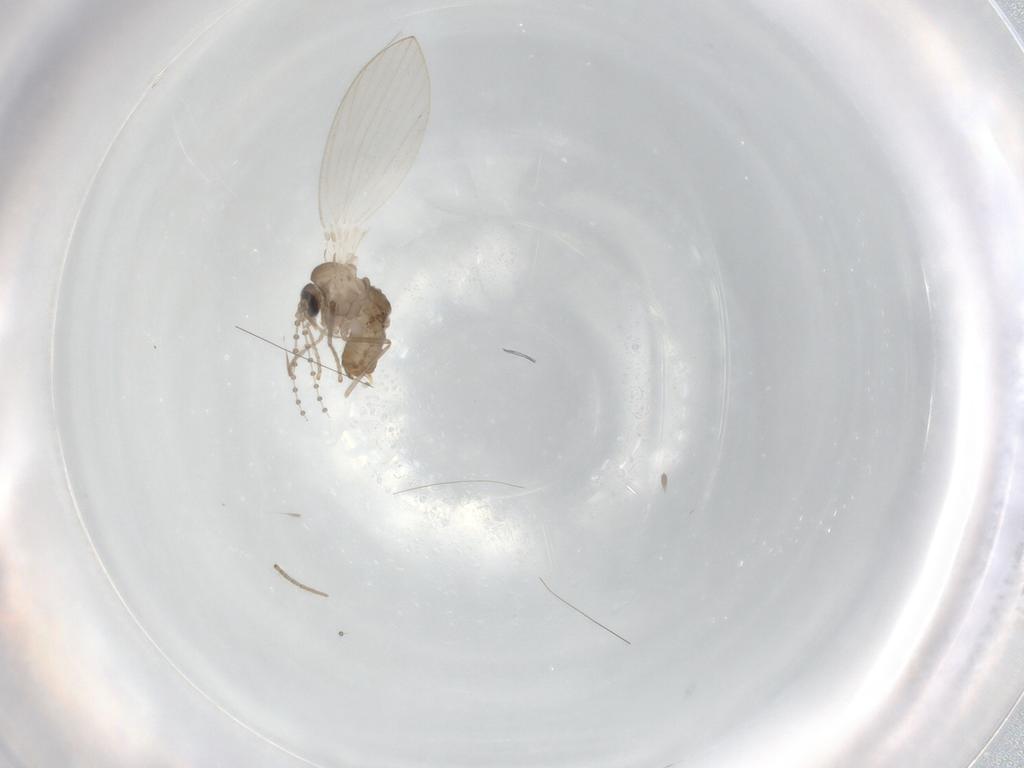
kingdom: Animalia
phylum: Arthropoda
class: Insecta
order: Diptera
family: Psychodidae
